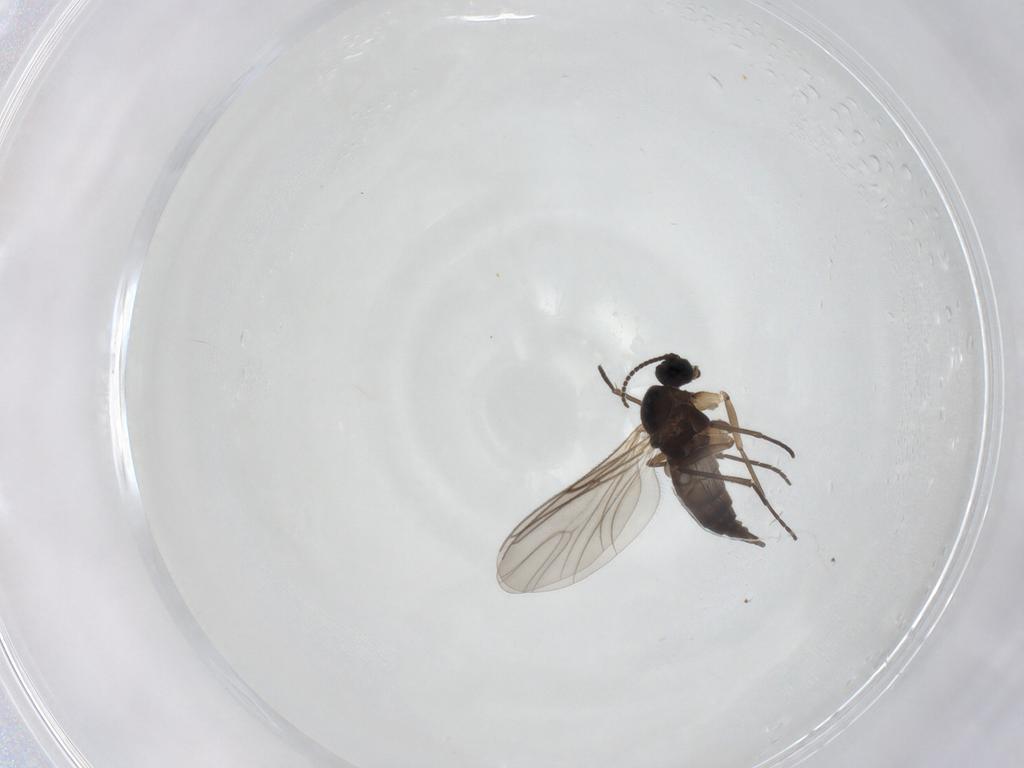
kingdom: Animalia
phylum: Arthropoda
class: Insecta
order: Diptera
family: Sciaridae
